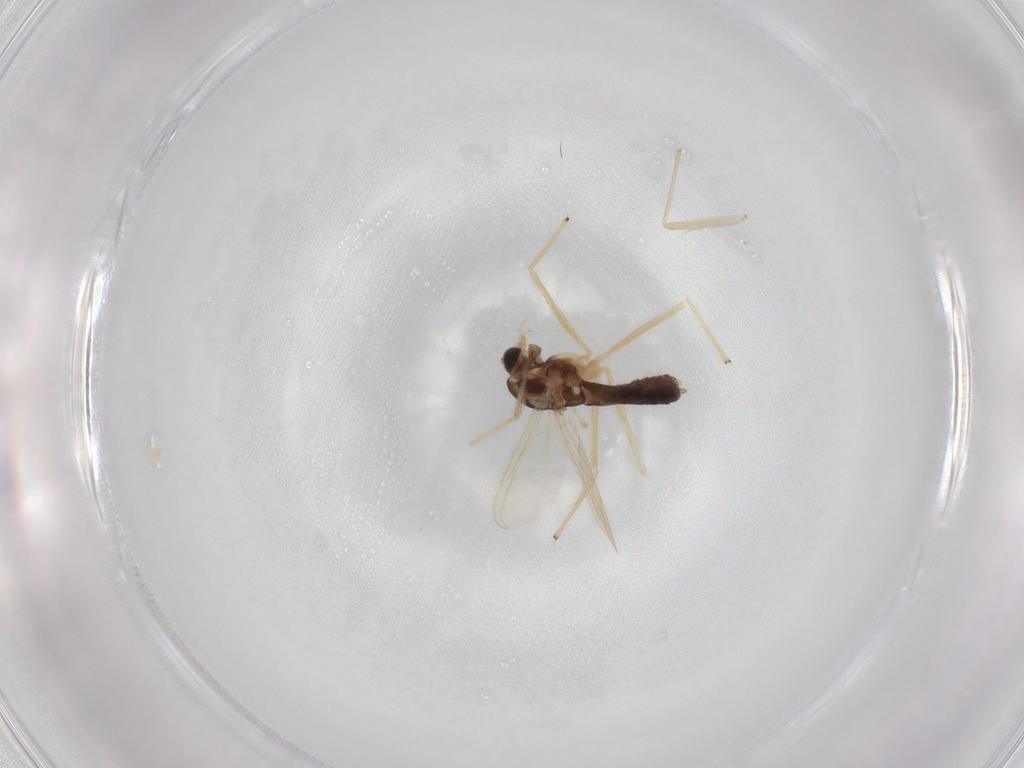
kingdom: Animalia
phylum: Arthropoda
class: Insecta
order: Diptera
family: Chironomidae
